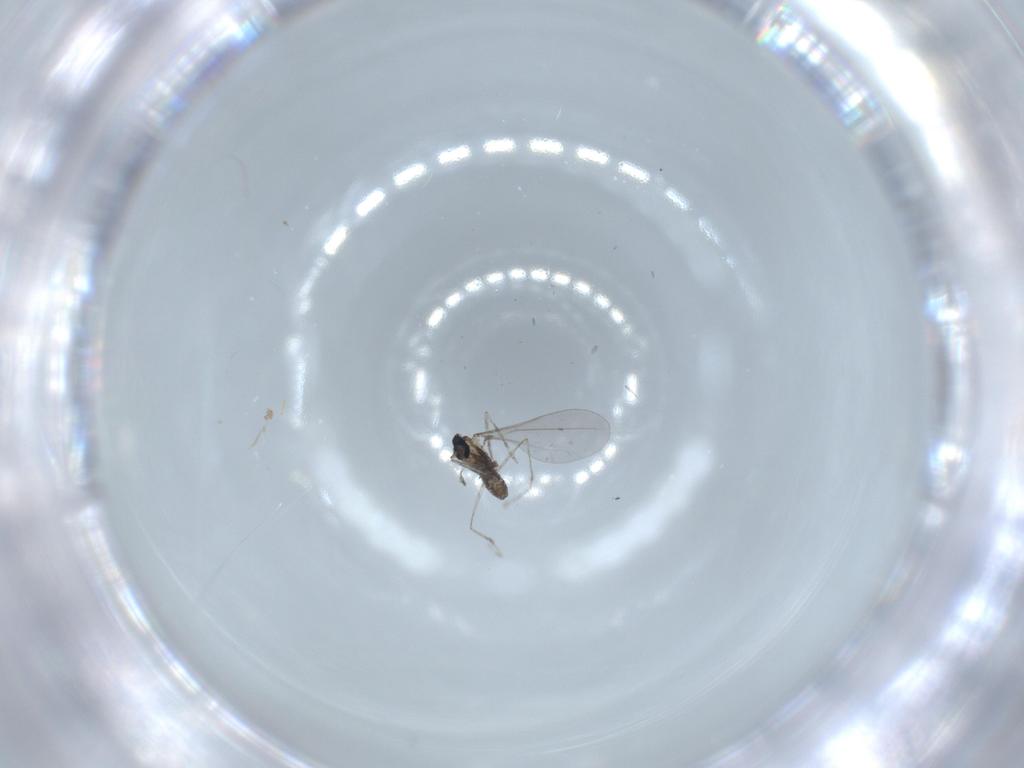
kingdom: Animalia
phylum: Arthropoda
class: Insecta
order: Diptera
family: Cecidomyiidae
